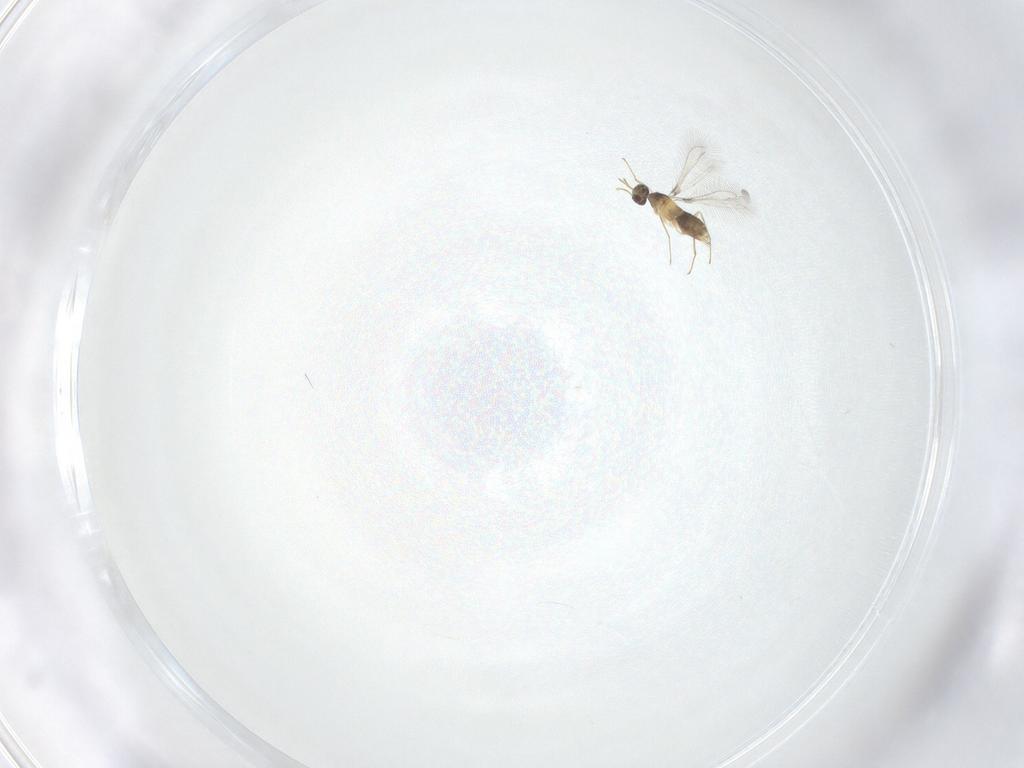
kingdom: Animalia
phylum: Arthropoda
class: Insecta
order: Hymenoptera
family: Mymaridae
